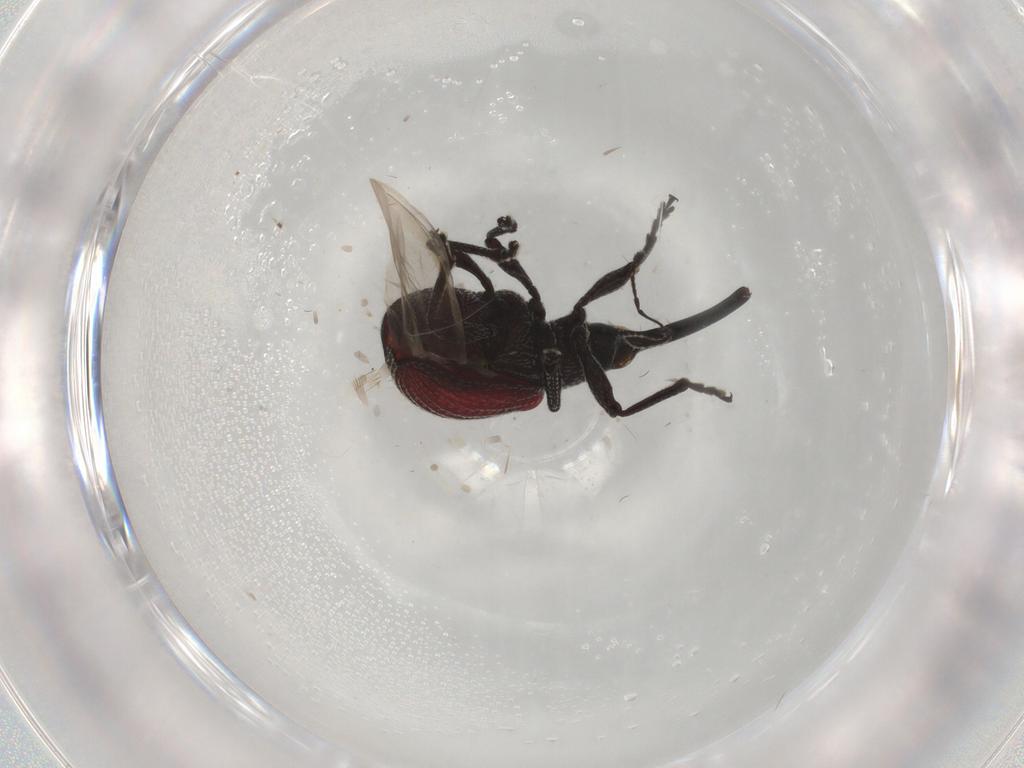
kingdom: Animalia
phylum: Arthropoda
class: Insecta
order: Coleoptera
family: Brentidae
